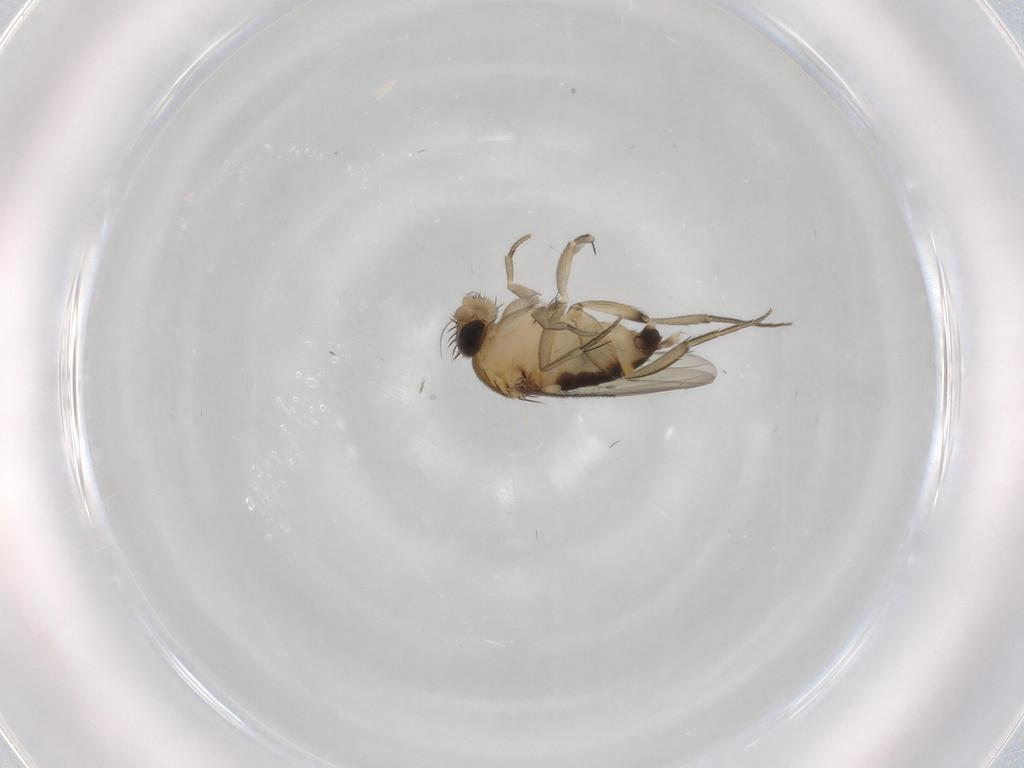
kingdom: Animalia
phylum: Arthropoda
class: Insecta
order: Diptera
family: Phoridae
